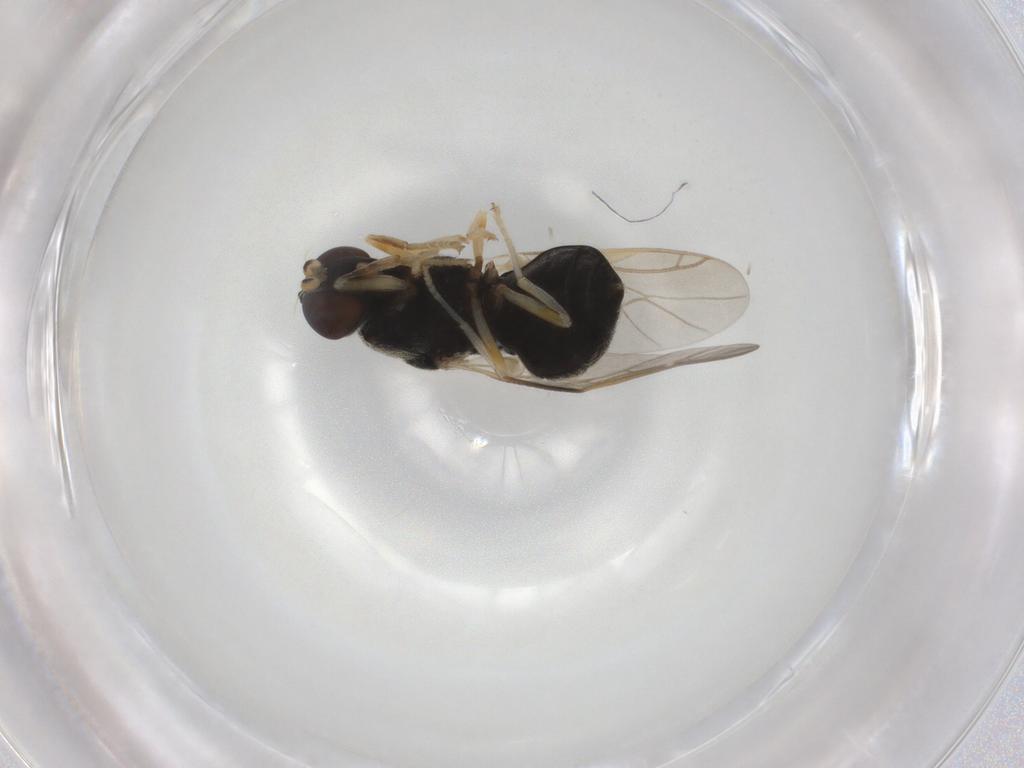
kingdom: Animalia
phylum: Arthropoda
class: Insecta
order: Diptera
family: Stratiomyidae
